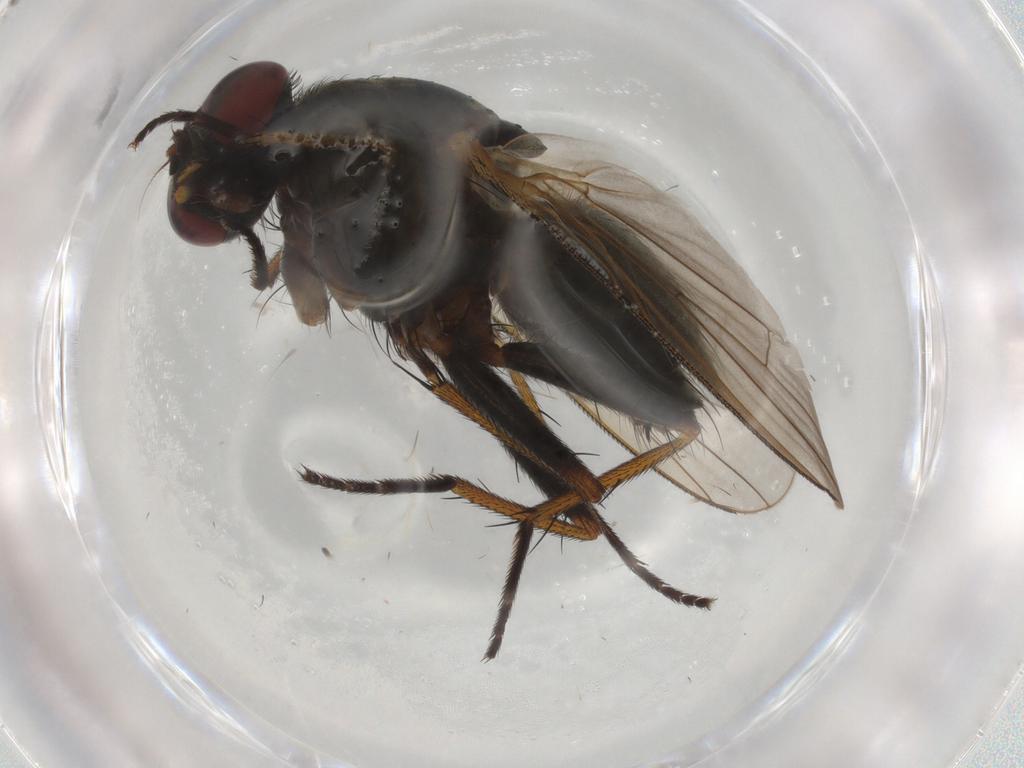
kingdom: Animalia
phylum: Arthropoda
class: Insecta
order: Diptera
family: Muscidae
